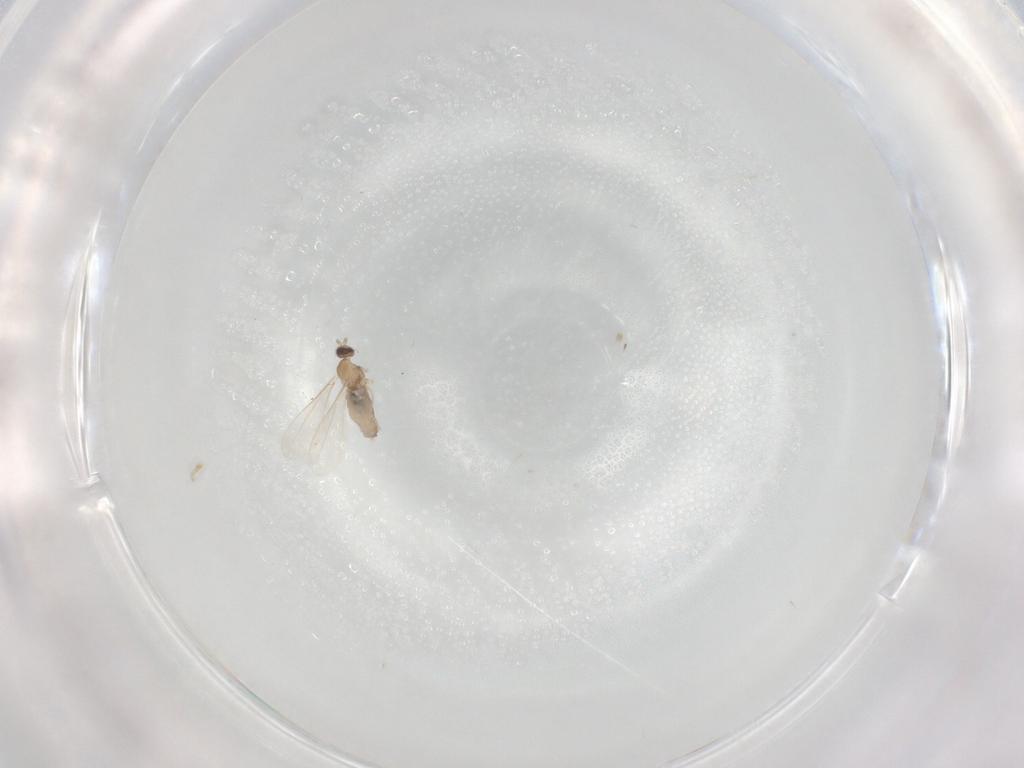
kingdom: Animalia
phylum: Arthropoda
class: Insecta
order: Diptera
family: Cecidomyiidae
